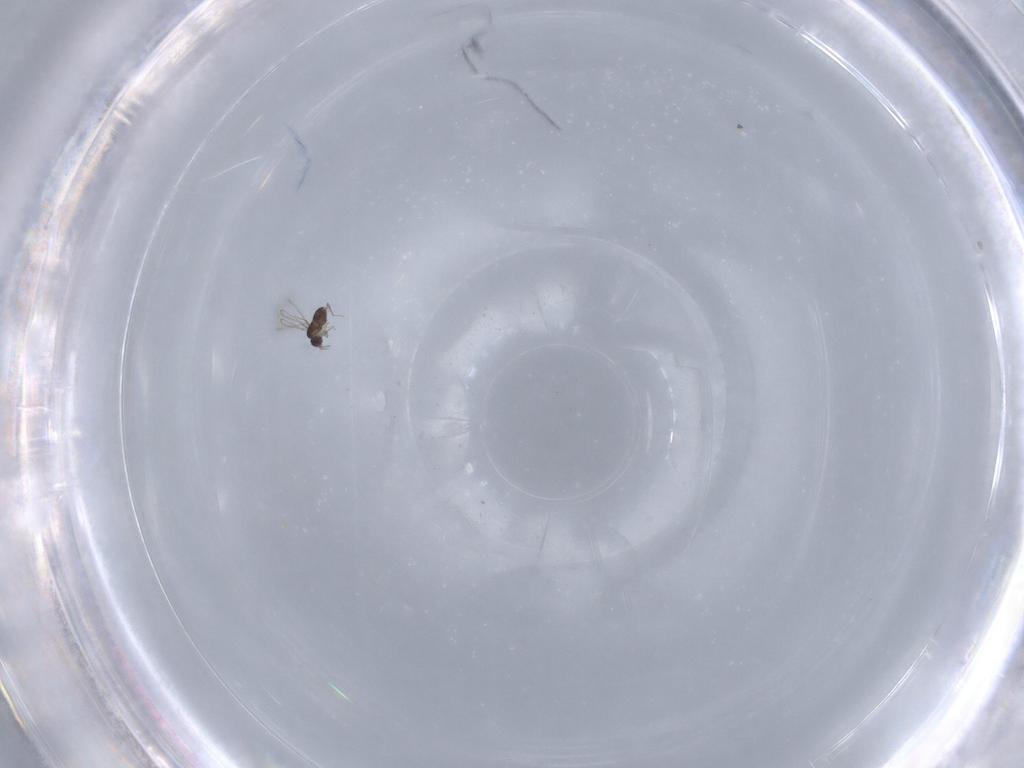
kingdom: Animalia
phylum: Arthropoda
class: Insecta
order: Hymenoptera
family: Mymaridae
